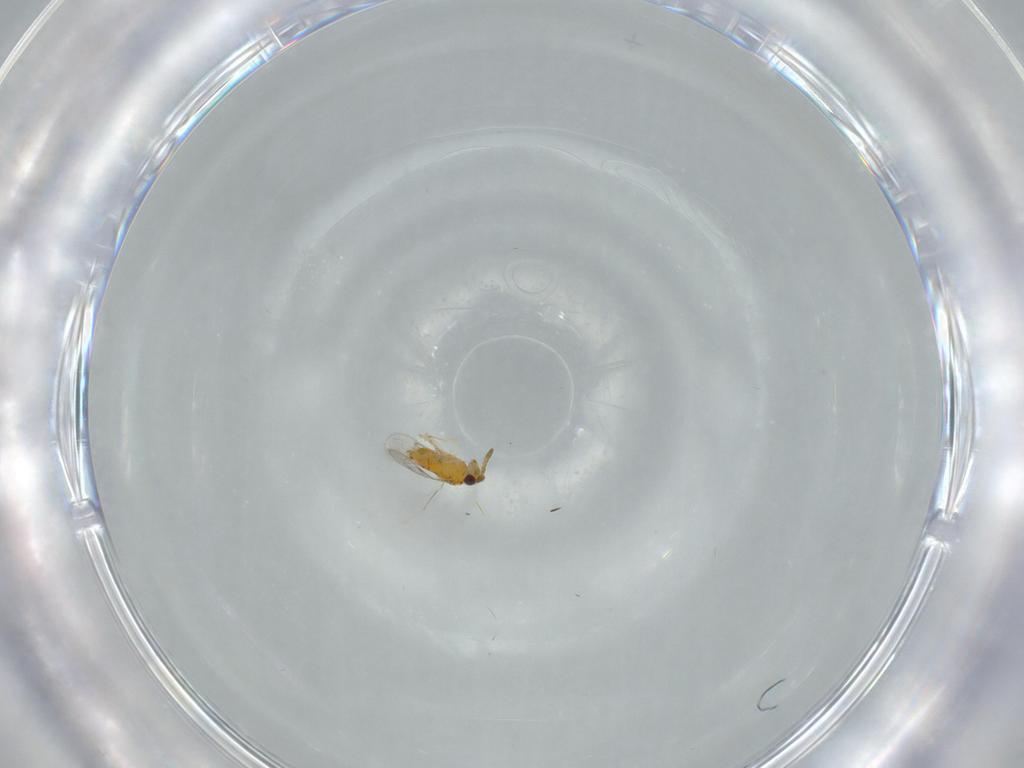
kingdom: Animalia
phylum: Arthropoda
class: Insecta
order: Hymenoptera
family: Aphelinidae
